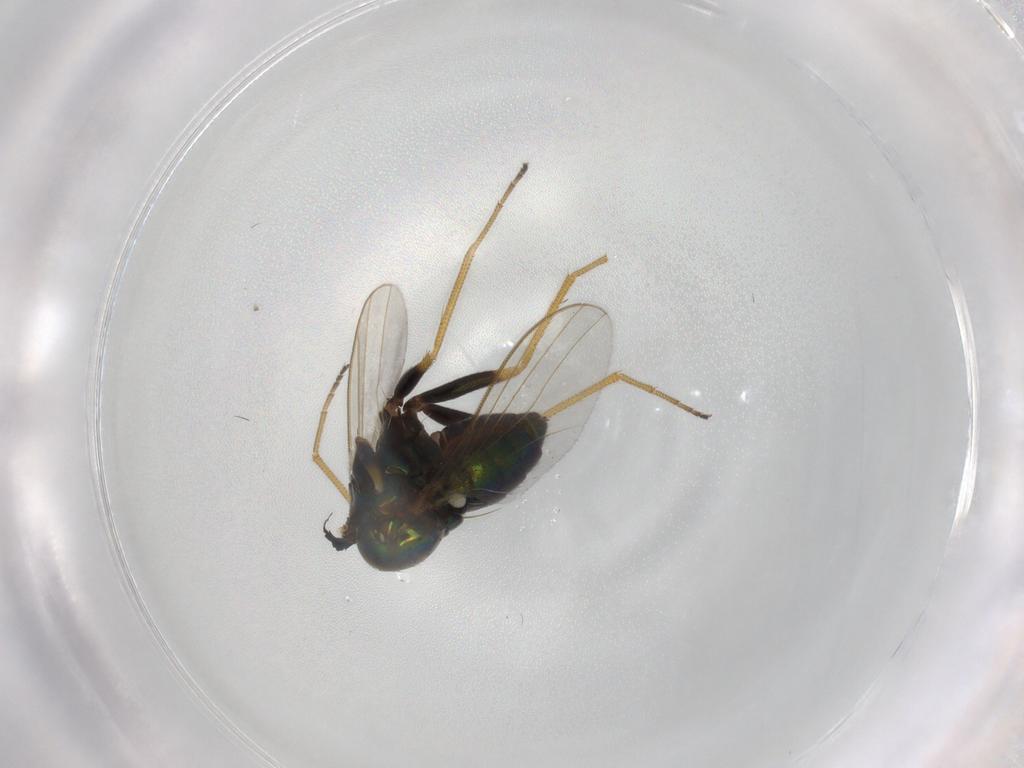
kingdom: Animalia
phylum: Arthropoda
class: Insecta
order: Diptera
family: Dolichopodidae
